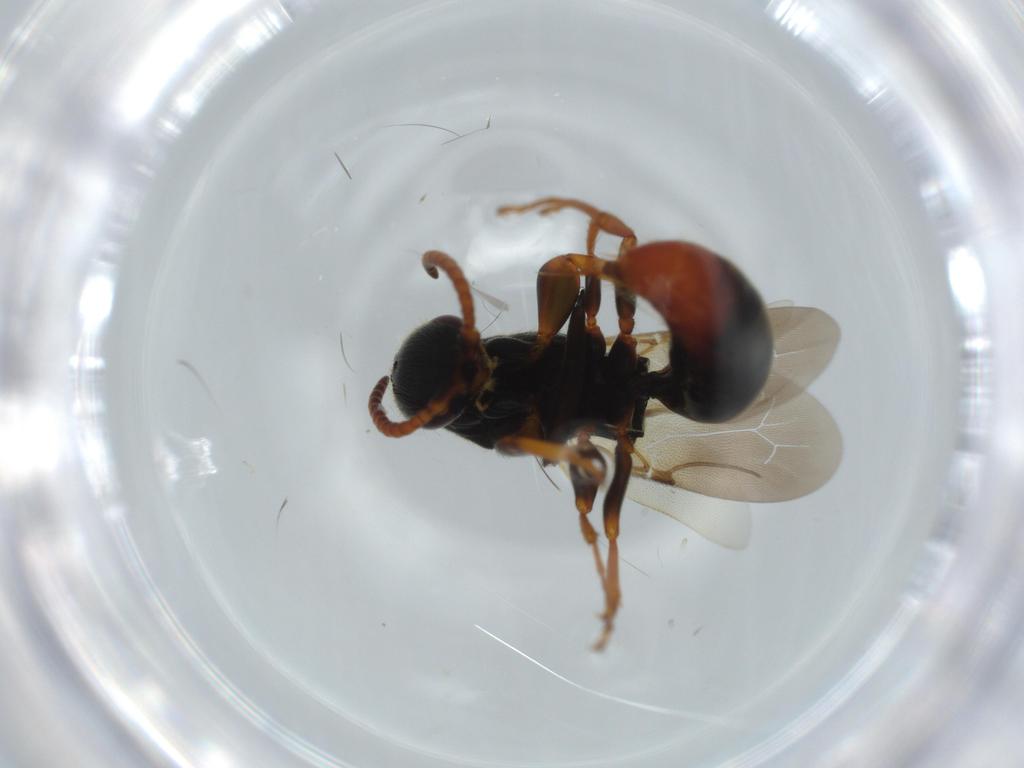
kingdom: Animalia
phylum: Arthropoda
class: Insecta
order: Hymenoptera
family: Bethylidae
